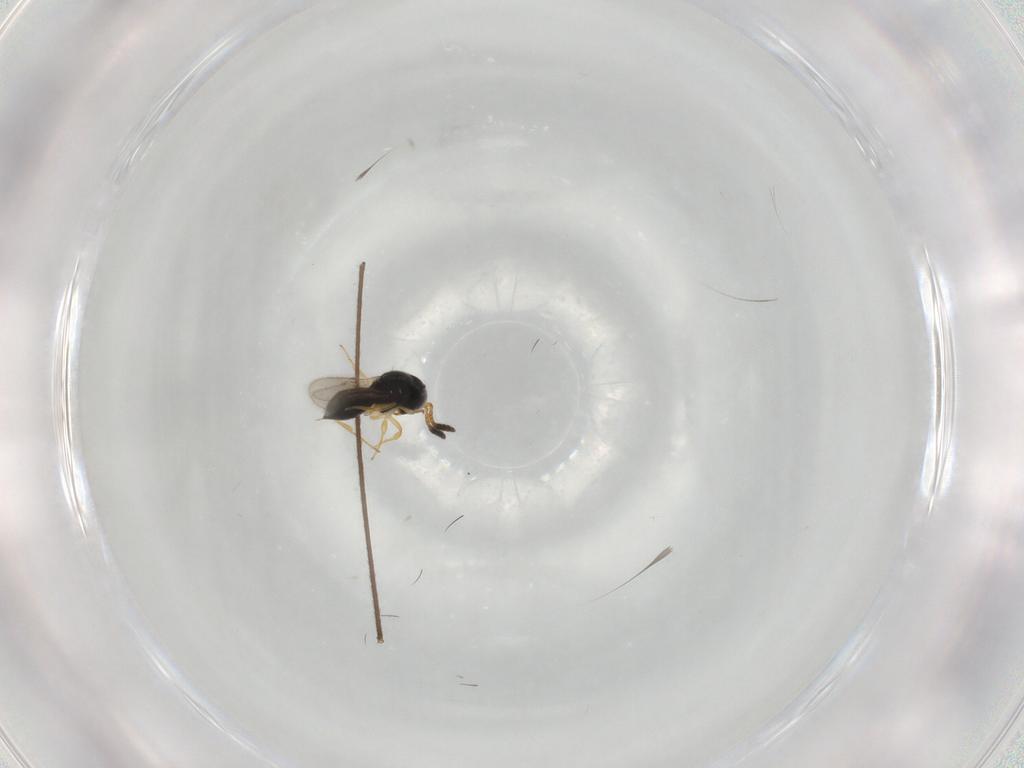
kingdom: Animalia
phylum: Arthropoda
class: Insecta
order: Hymenoptera
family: Scelionidae
